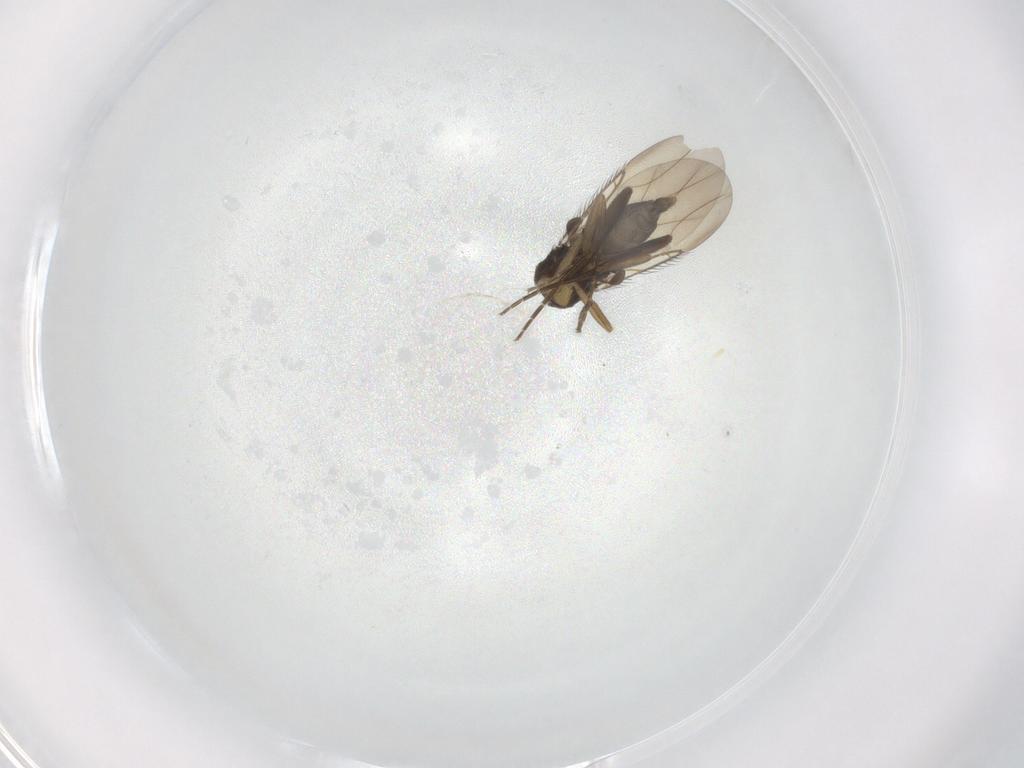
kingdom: Animalia
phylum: Arthropoda
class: Insecta
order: Diptera
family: Phoridae
